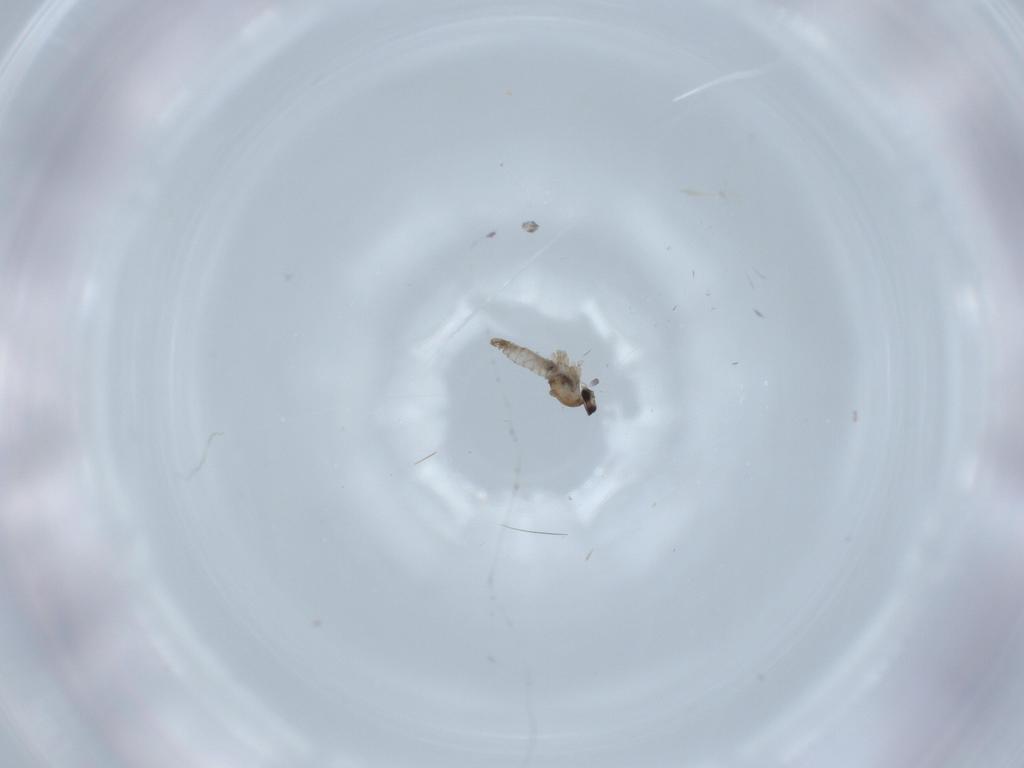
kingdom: Animalia
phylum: Arthropoda
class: Insecta
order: Diptera
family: Cecidomyiidae
